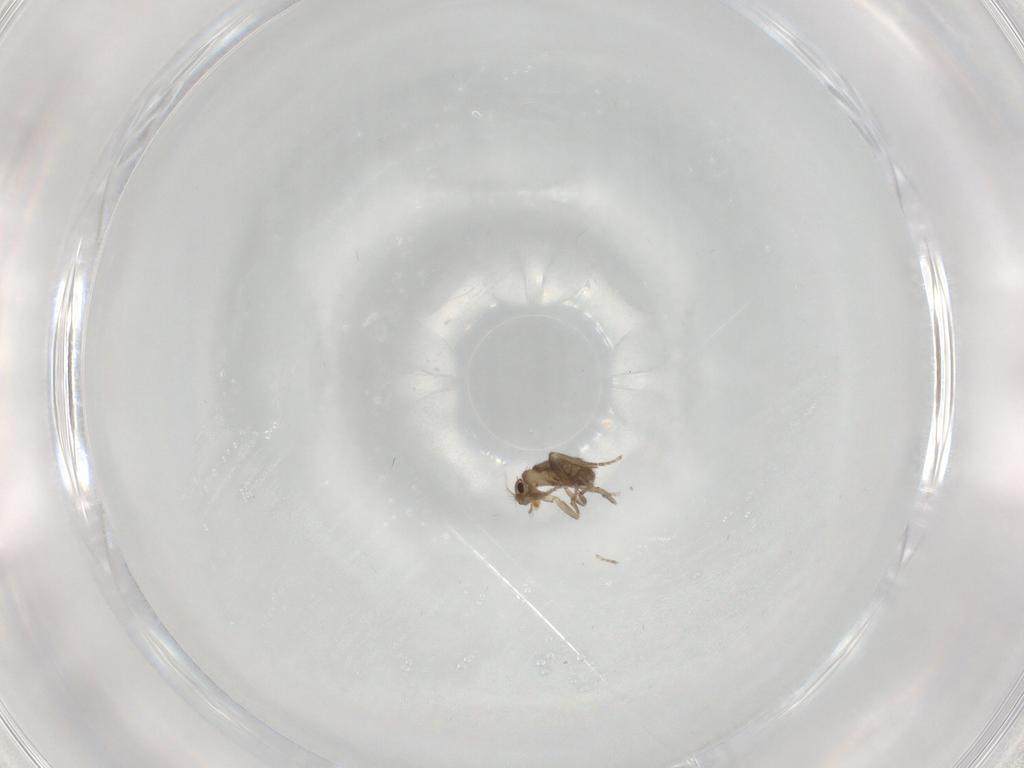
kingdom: Animalia
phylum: Arthropoda
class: Insecta
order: Diptera
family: Phoridae
